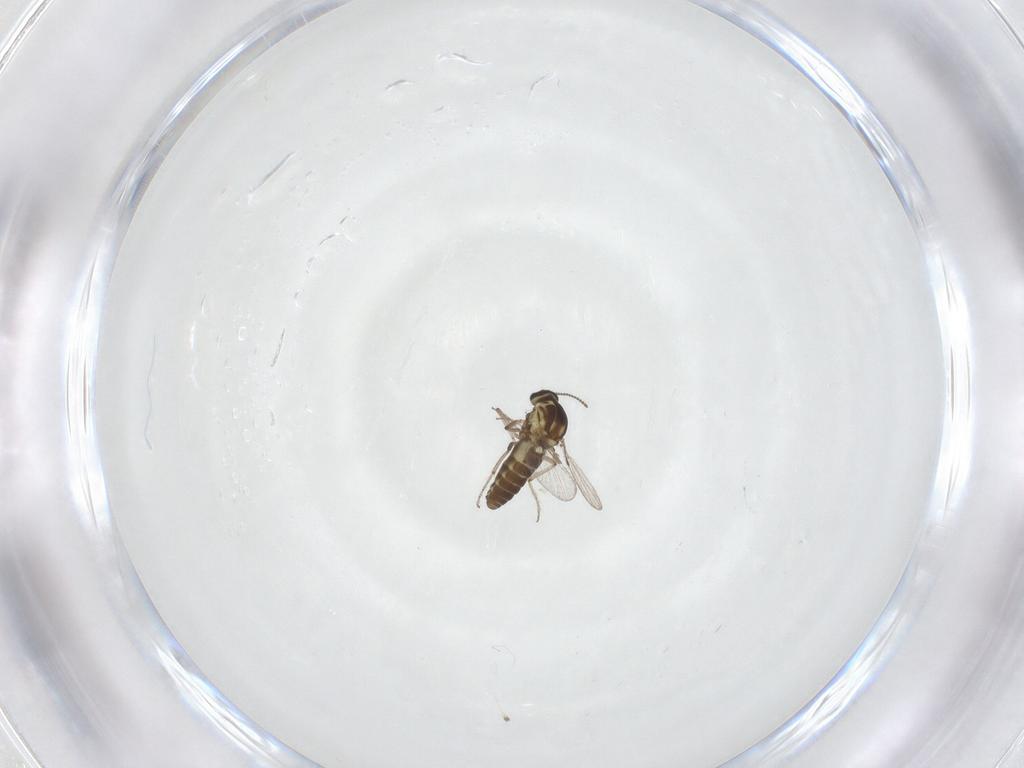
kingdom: Animalia
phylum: Arthropoda
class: Insecta
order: Diptera
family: Ceratopogonidae
